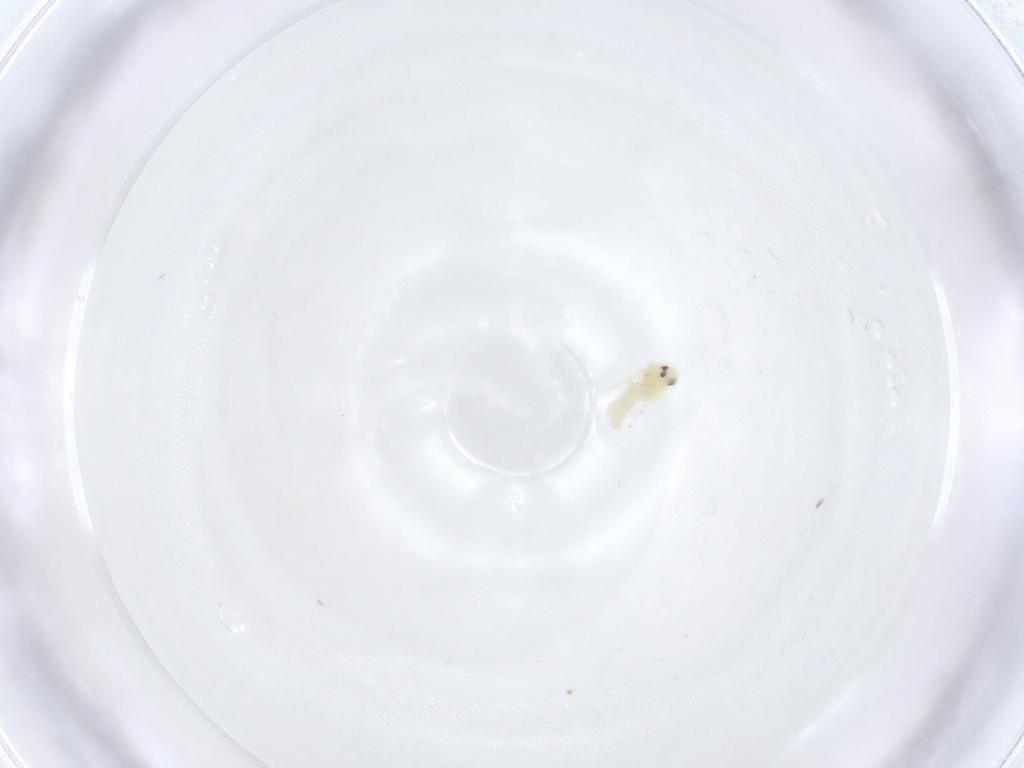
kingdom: Animalia
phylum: Arthropoda
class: Insecta
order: Hemiptera
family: Aleyrodidae
